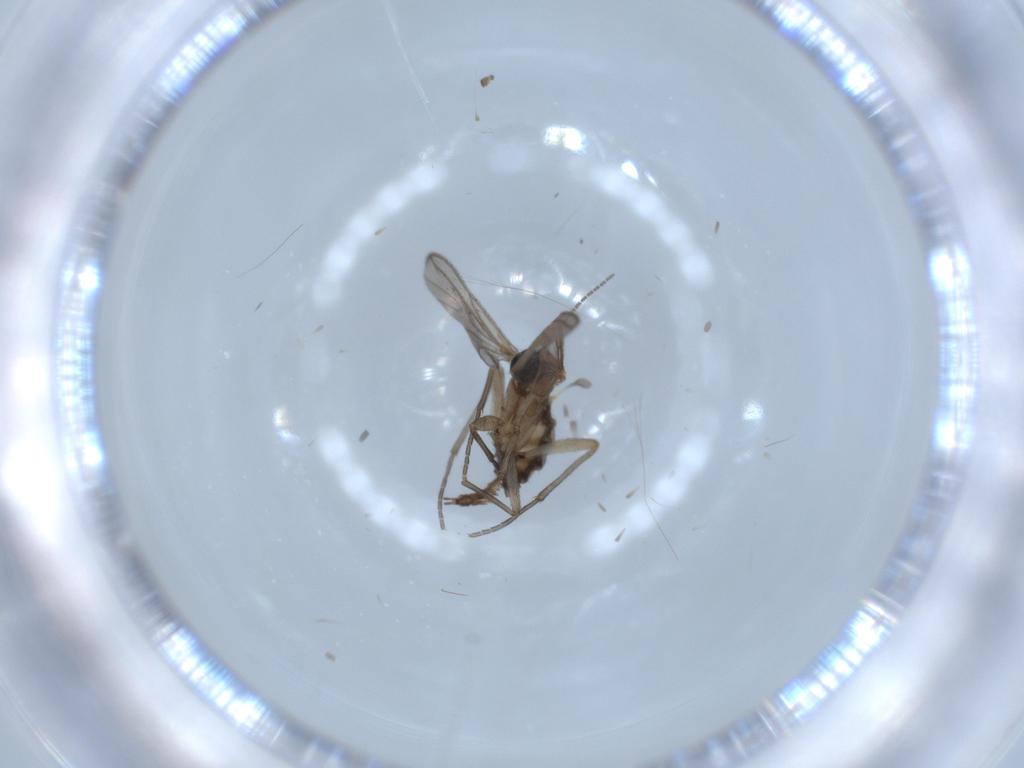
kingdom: Animalia
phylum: Arthropoda
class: Insecta
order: Diptera
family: Sciaridae
